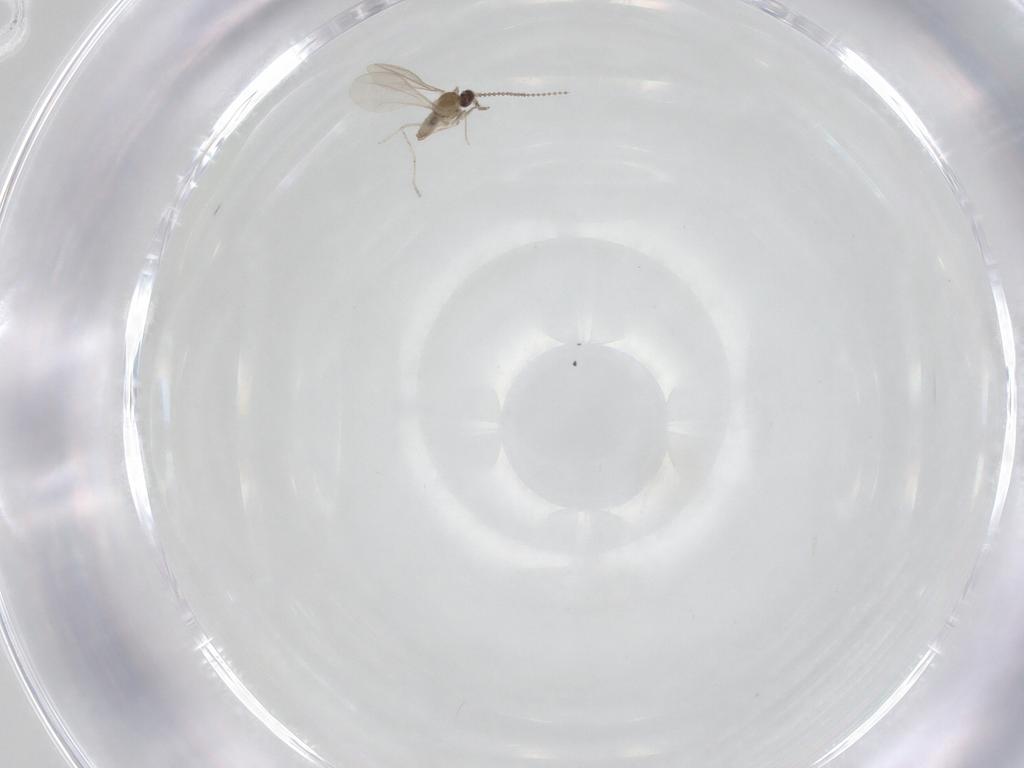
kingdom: Animalia
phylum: Arthropoda
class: Insecta
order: Diptera
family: Cecidomyiidae
